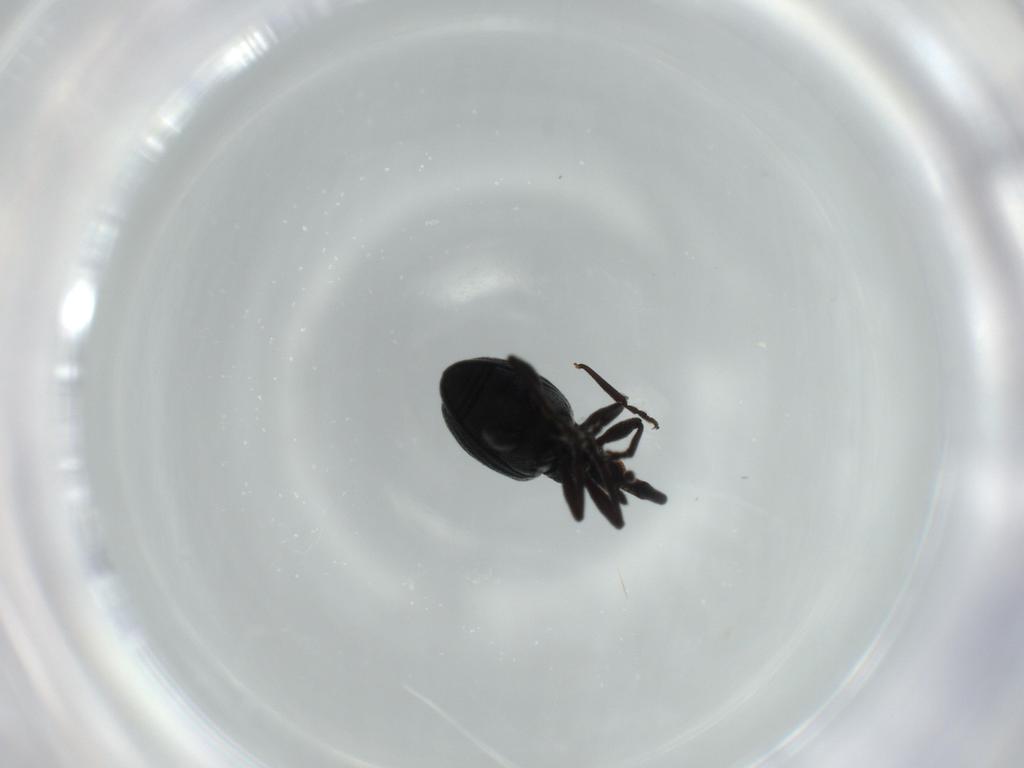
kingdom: Animalia
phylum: Arthropoda
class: Insecta
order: Coleoptera
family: Brentidae
